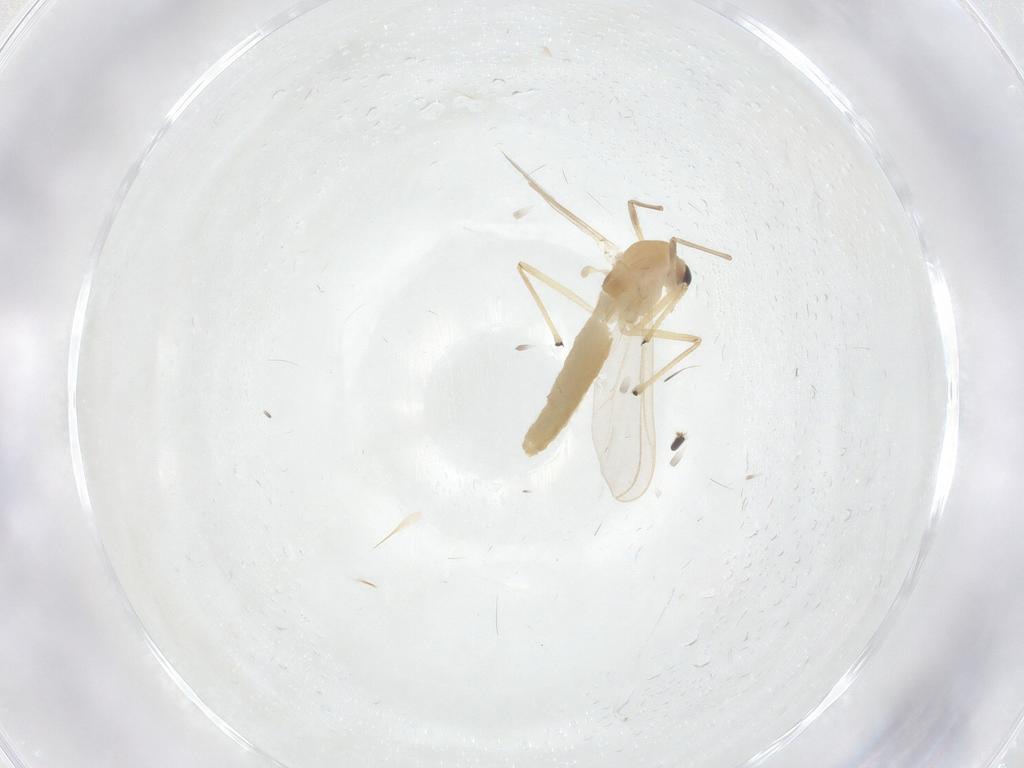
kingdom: Animalia
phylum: Arthropoda
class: Insecta
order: Diptera
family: Chironomidae
